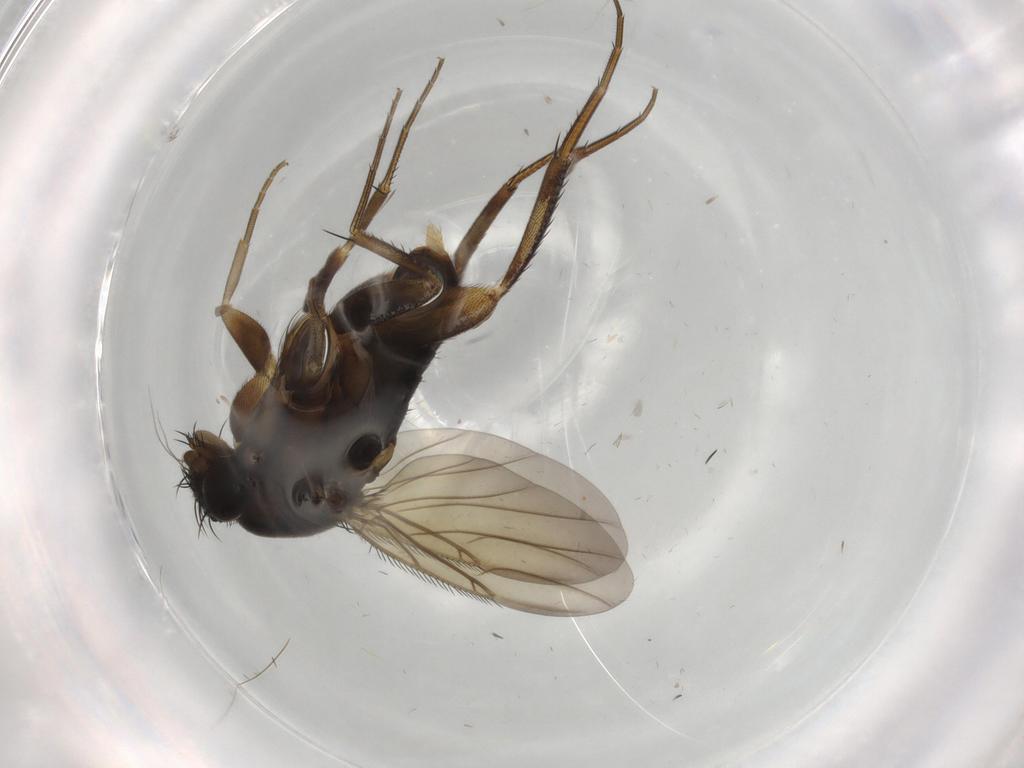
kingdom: Animalia
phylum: Arthropoda
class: Insecta
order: Diptera
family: Phoridae
